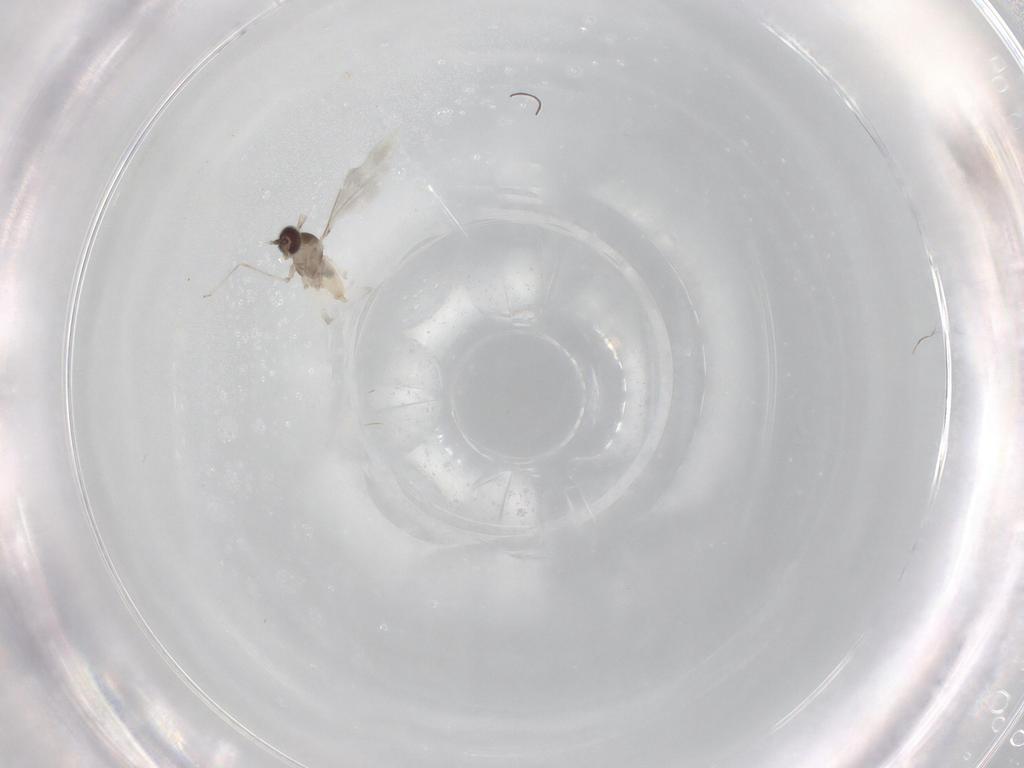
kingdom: Animalia
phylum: Arthropoda
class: Insecta
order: Diptera
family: Cecidomyiidae
